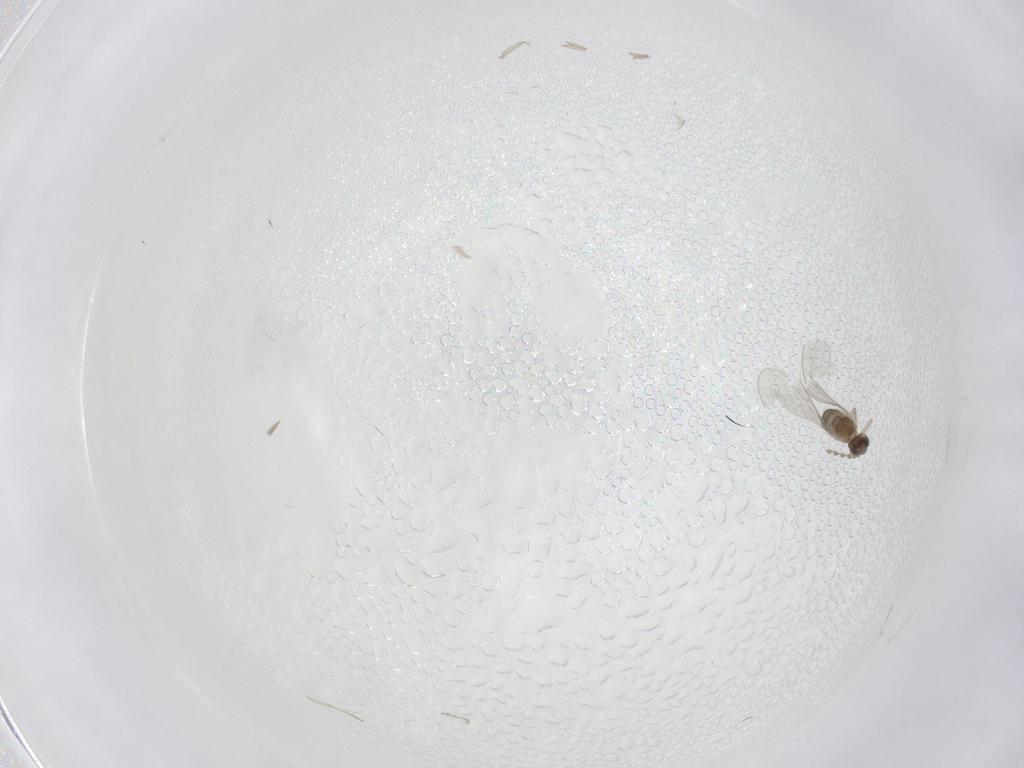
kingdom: Animalia
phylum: Arthropoda
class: Insecta
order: Diptera
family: Cecidomyiidae
